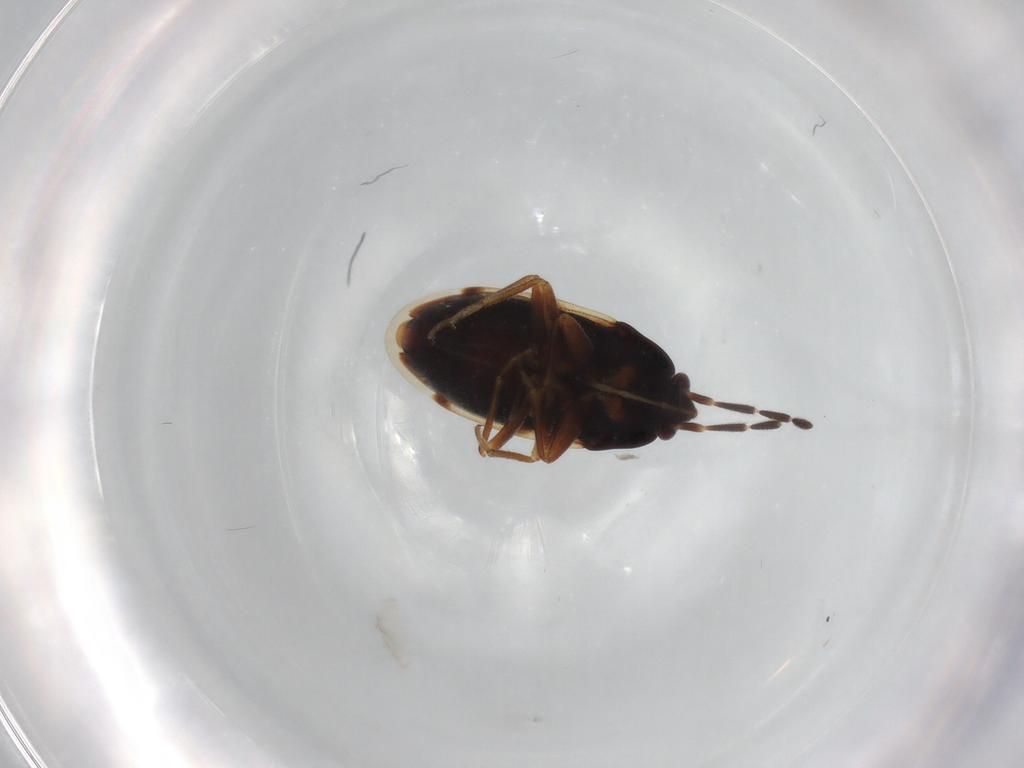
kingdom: Animalia
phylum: Arthropoda
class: Insecta
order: Hemiptera
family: Rhyparochromidae
